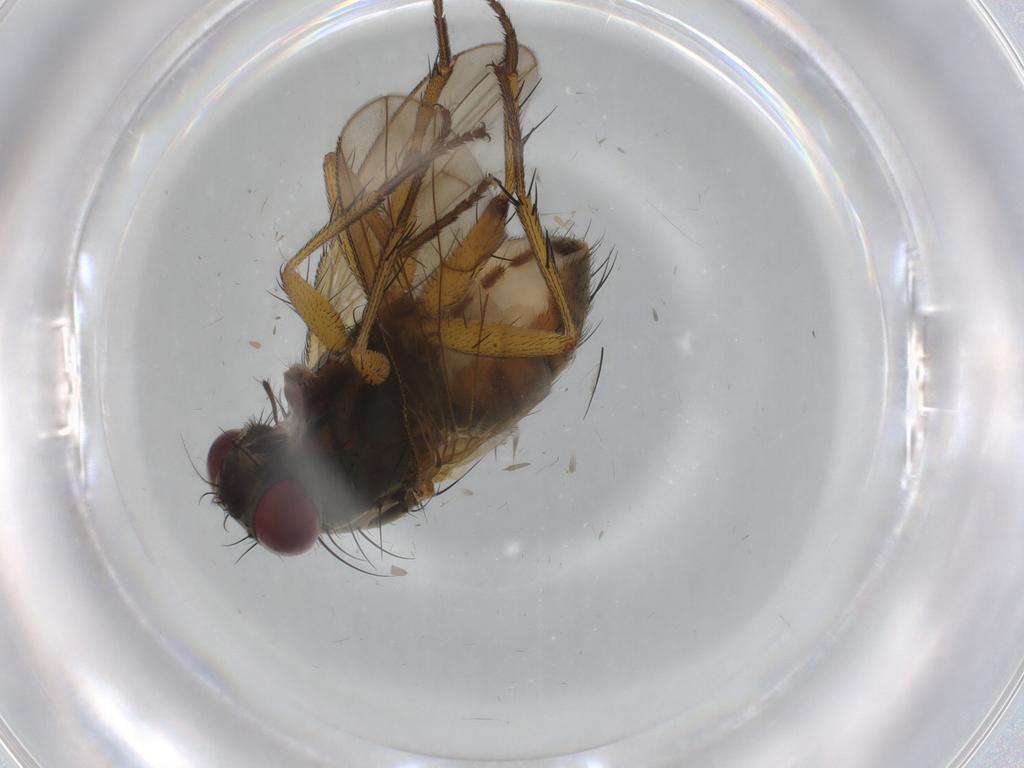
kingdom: Animalia
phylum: Arthropoda
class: Insecta
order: Diptera
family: Muscidae
